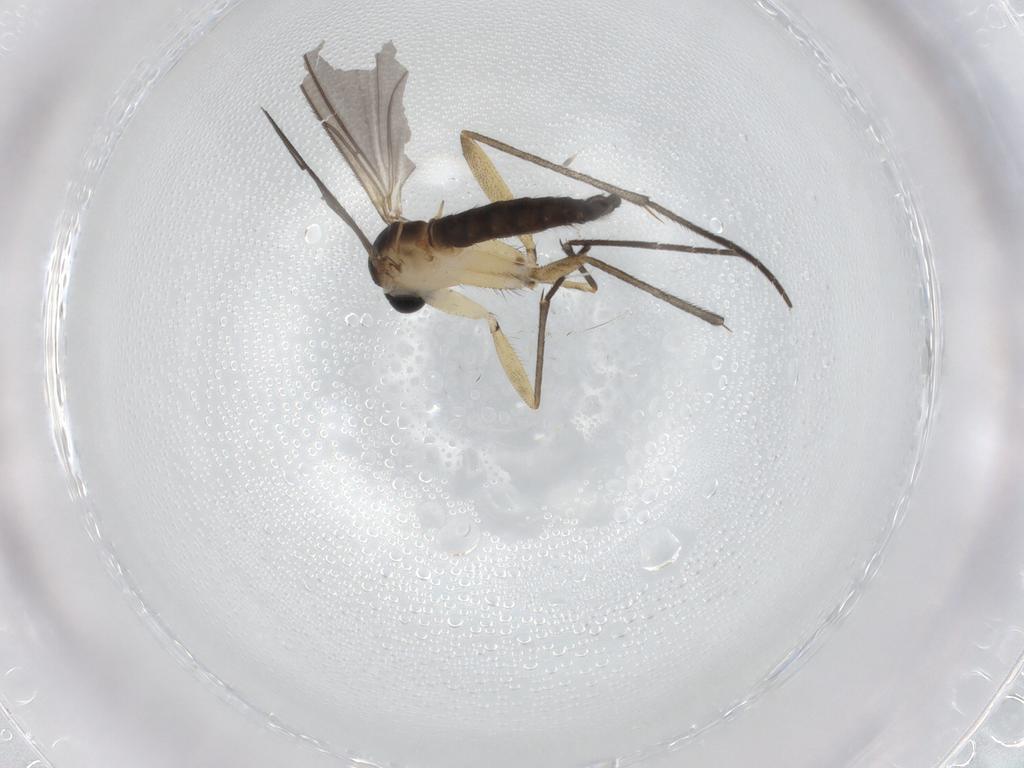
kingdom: Animalia
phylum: Arthropoda
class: Insecta
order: Diptera
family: Sciaridae
